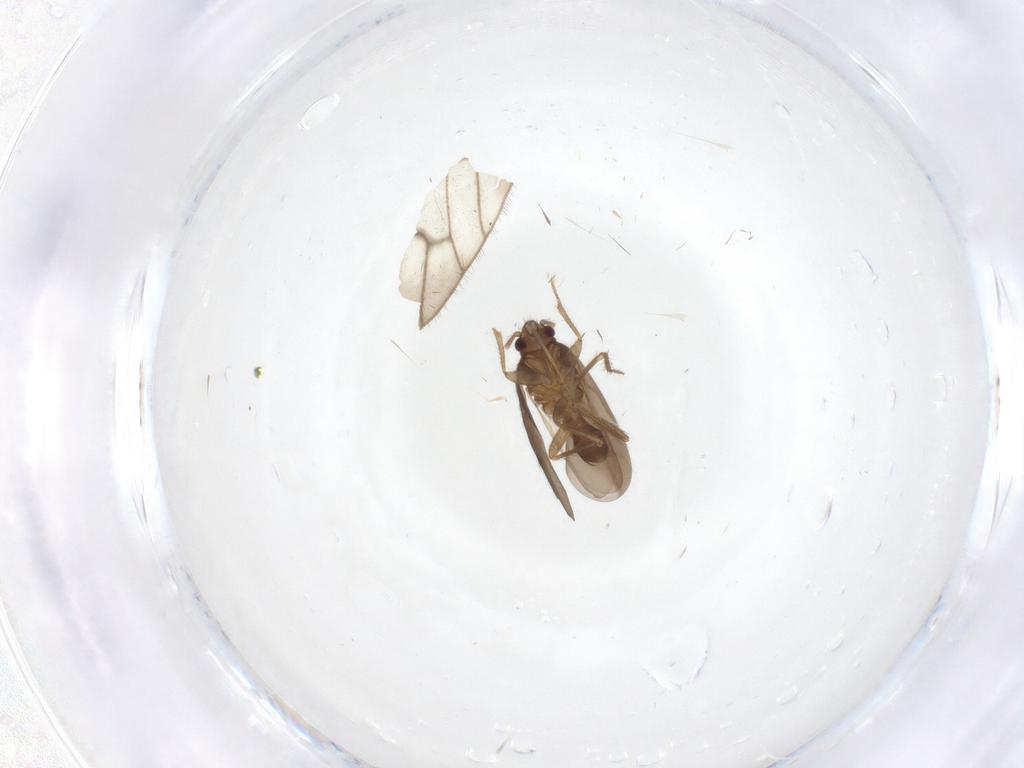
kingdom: Animalia
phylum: Arthropoda
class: Insecta
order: Hemiptera
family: Ceratocombidae
